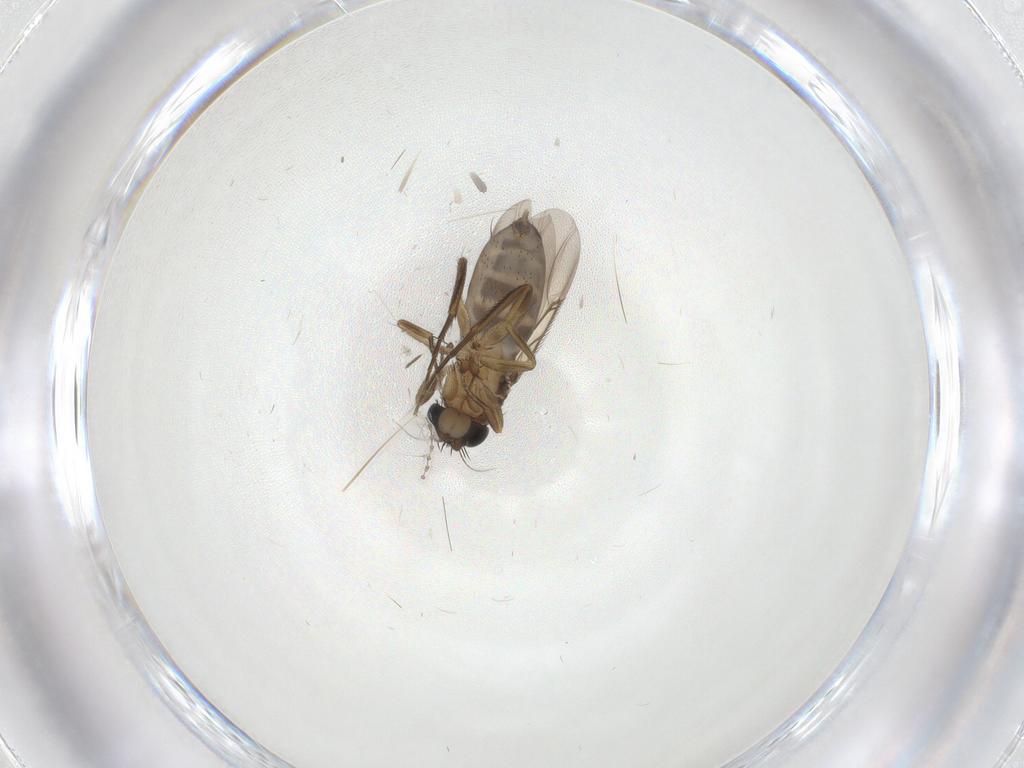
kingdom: Animalia
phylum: Arthropoda
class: Insecta
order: Diptera
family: Phoridae
